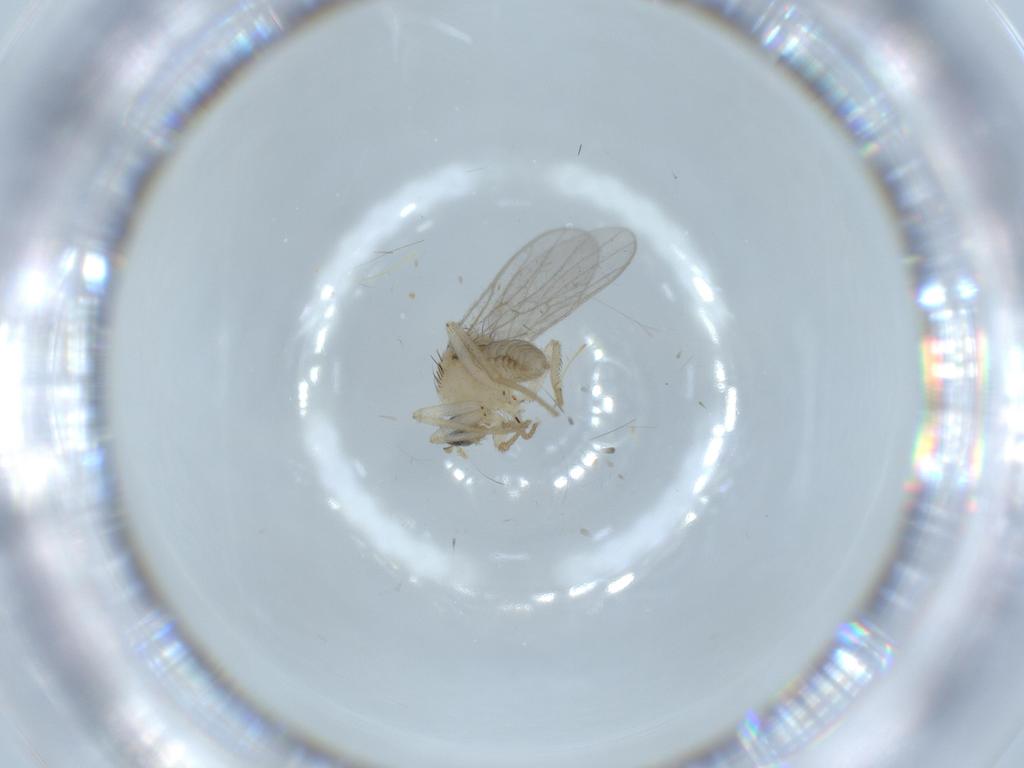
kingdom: Animalia
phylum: Arthropoda
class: Insecta
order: Diptera
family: Hybotidae
